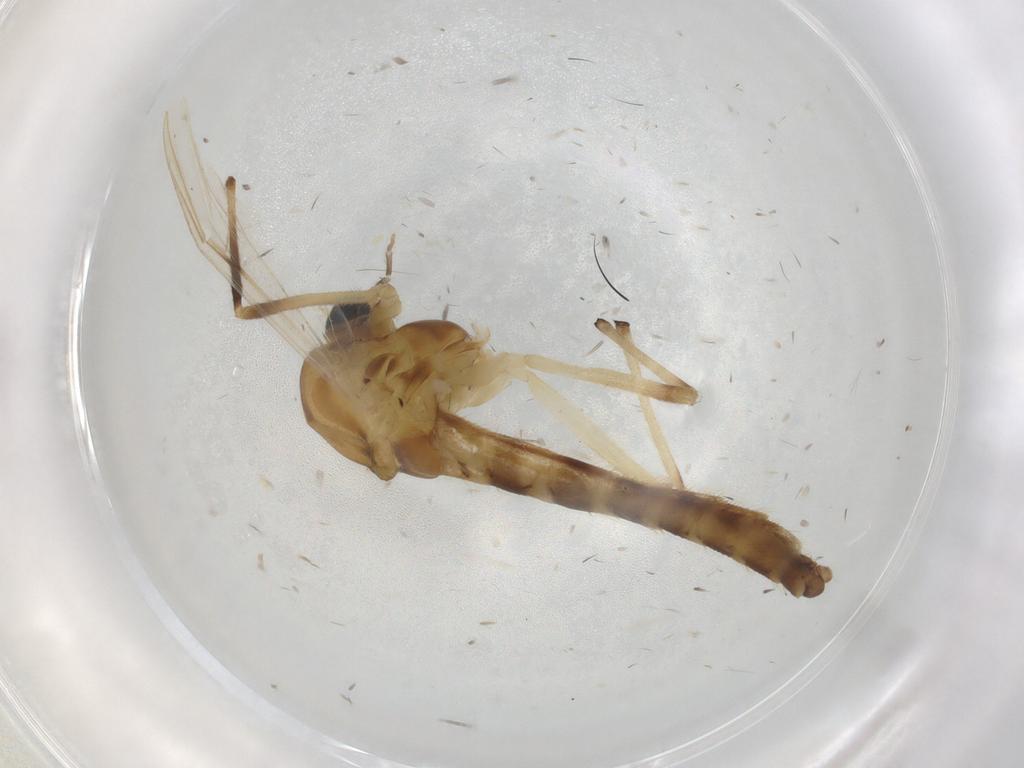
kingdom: Animalia
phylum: Arthropoda
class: Insecta
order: Diptera
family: Chironomidae
